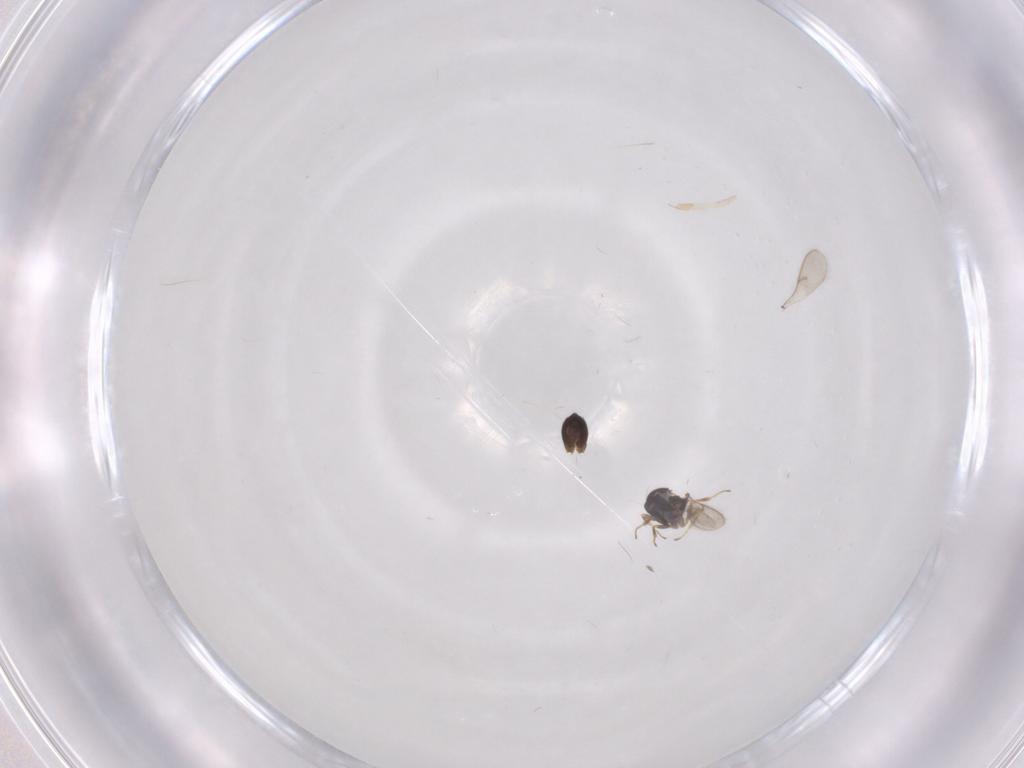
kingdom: Animalia
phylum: Arthropoda
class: Insecta
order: Hymenoptera
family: Scelionidae
